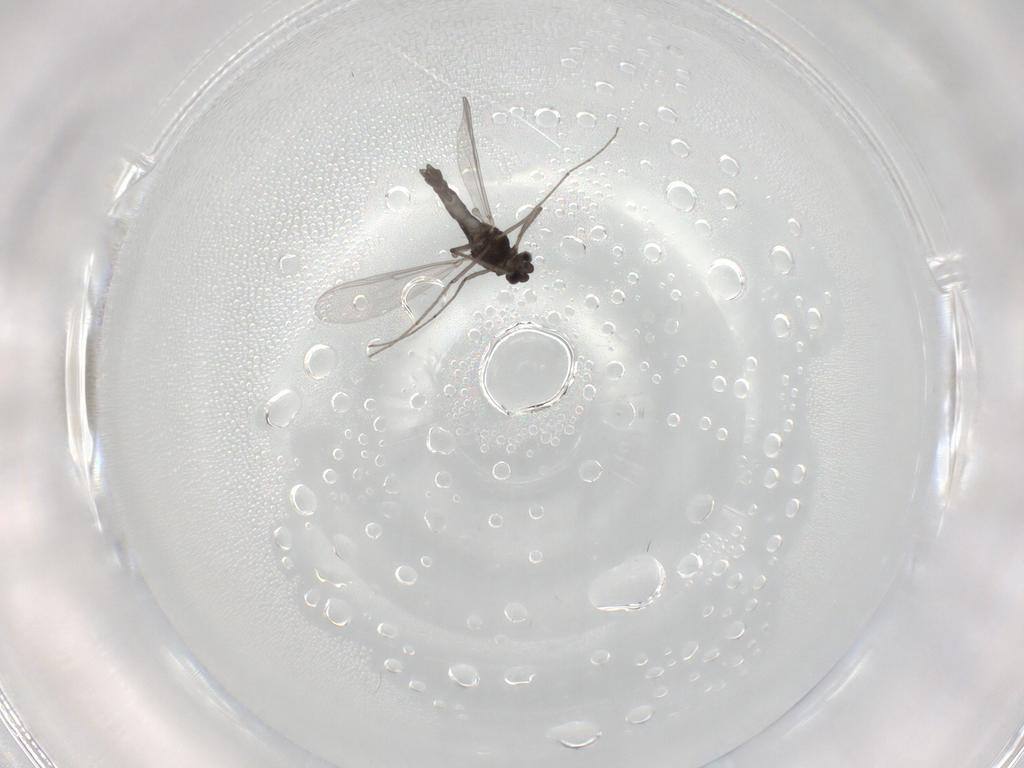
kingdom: Animalia
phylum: Arthropoda
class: Insecta
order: Diptera
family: Chironomidae
